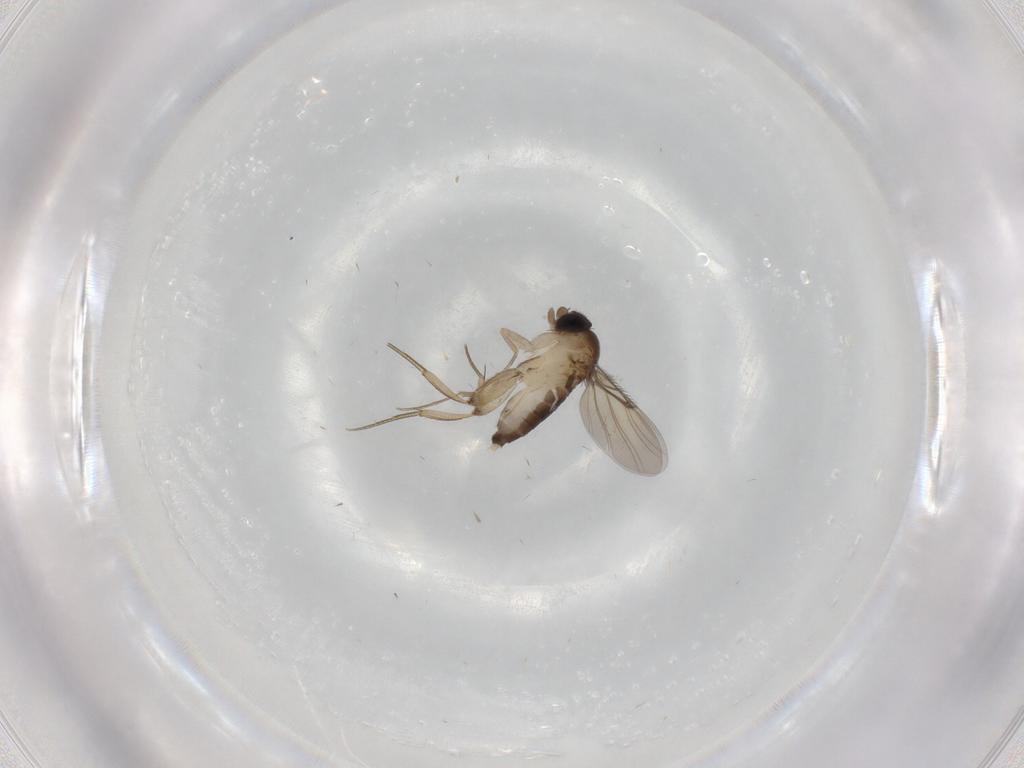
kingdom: Animalia
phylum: Arthropoda
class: Insecta
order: Diptera
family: Phoridae
